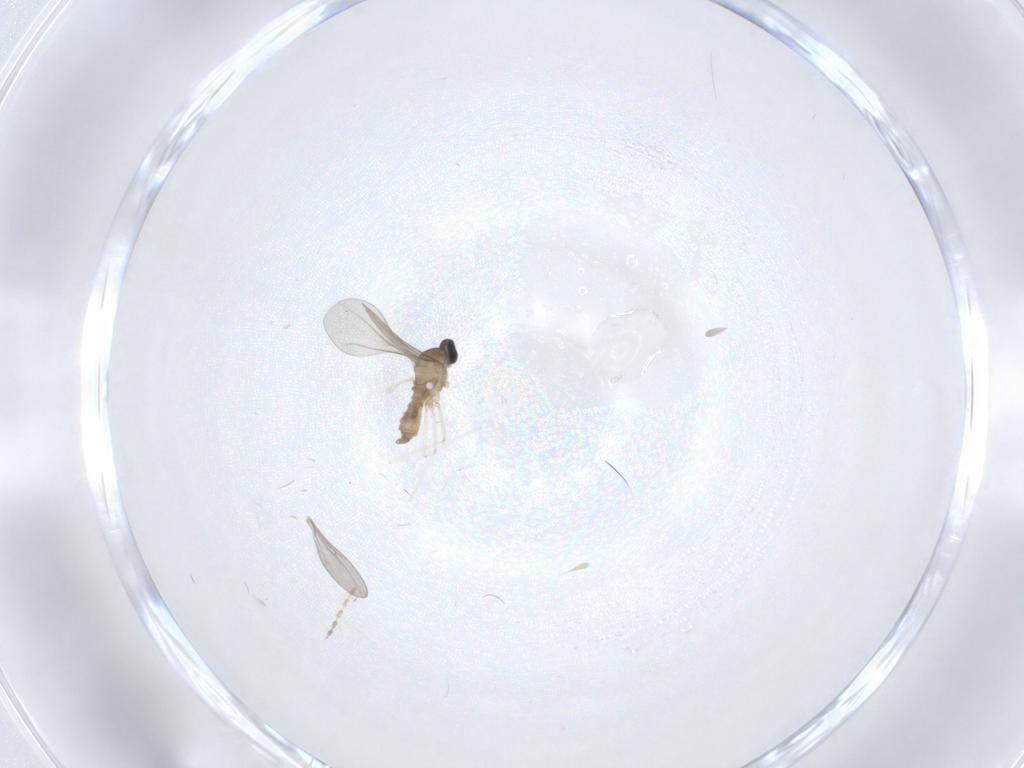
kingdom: Animalia
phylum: Arthropoda
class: Insecta
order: Diptera
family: Cecidomyiidae
